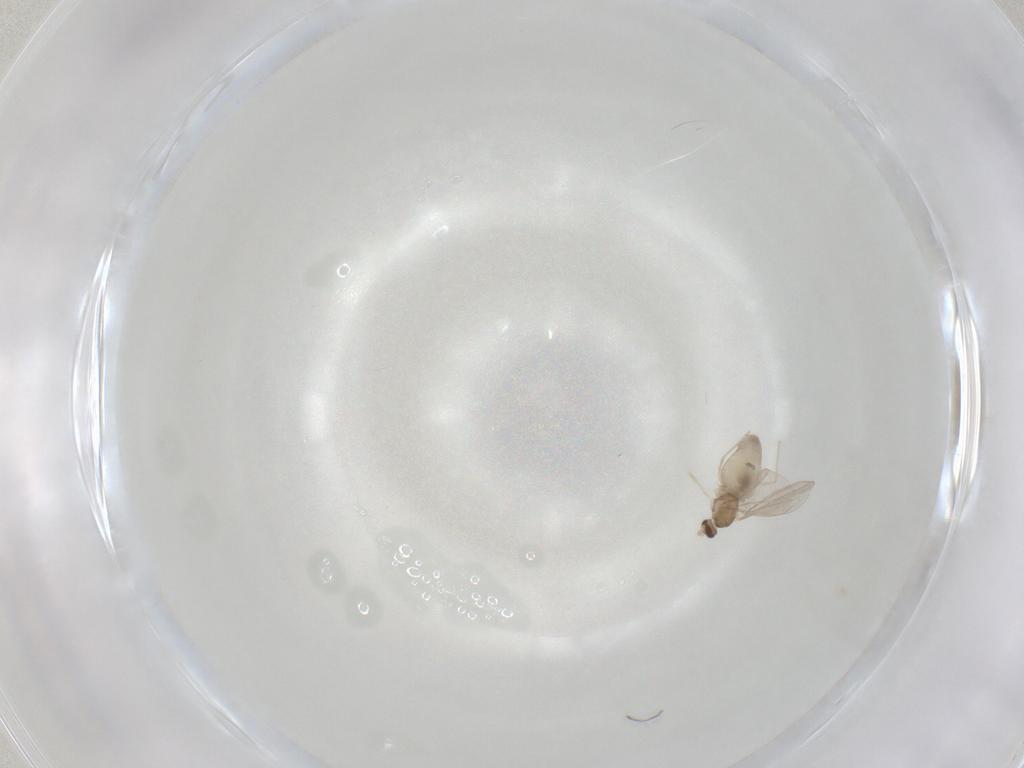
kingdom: Animalia
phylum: Arthropoda
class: Insecta
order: Diptera
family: Cecidomyiidae
